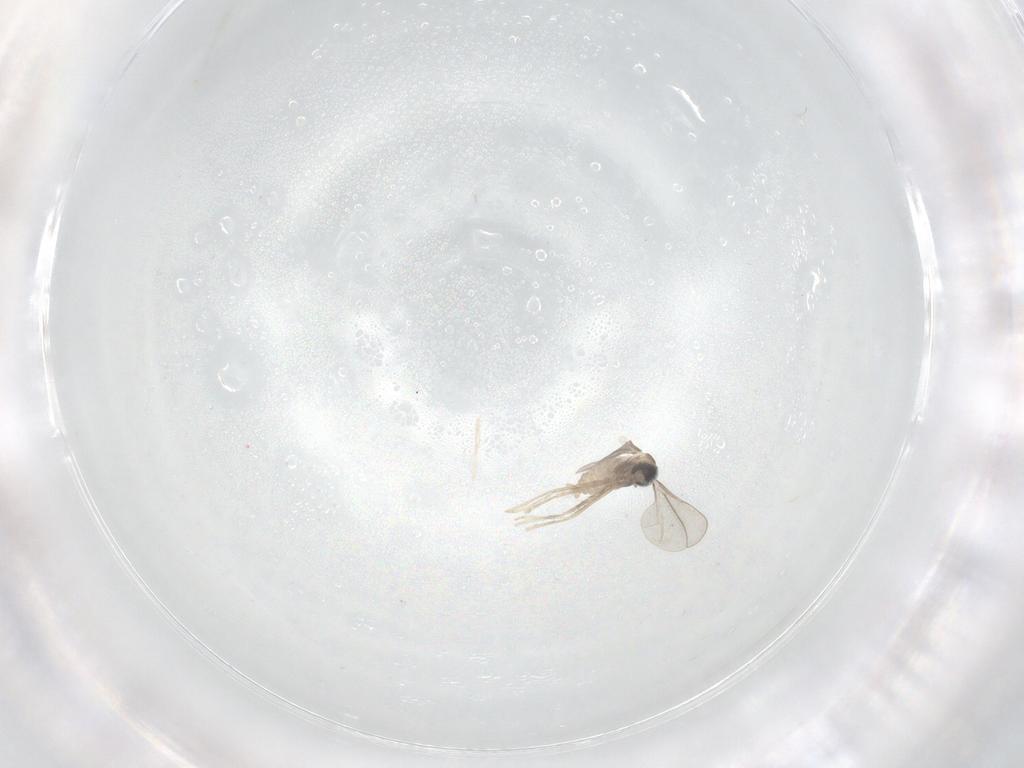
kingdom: Animalia
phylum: Arthropoda
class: Insecta
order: Diptera
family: Cecidomyiidae
